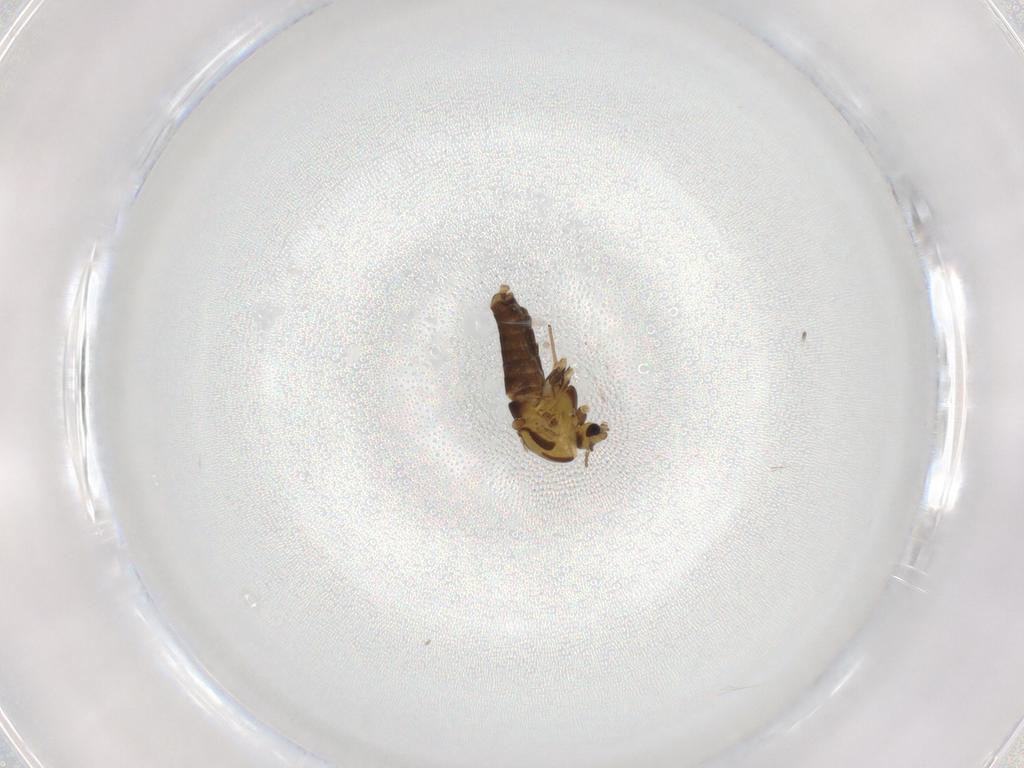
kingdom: Animalia
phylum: Arthropoda
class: Insecta
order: Diptera
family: Chironomidae
